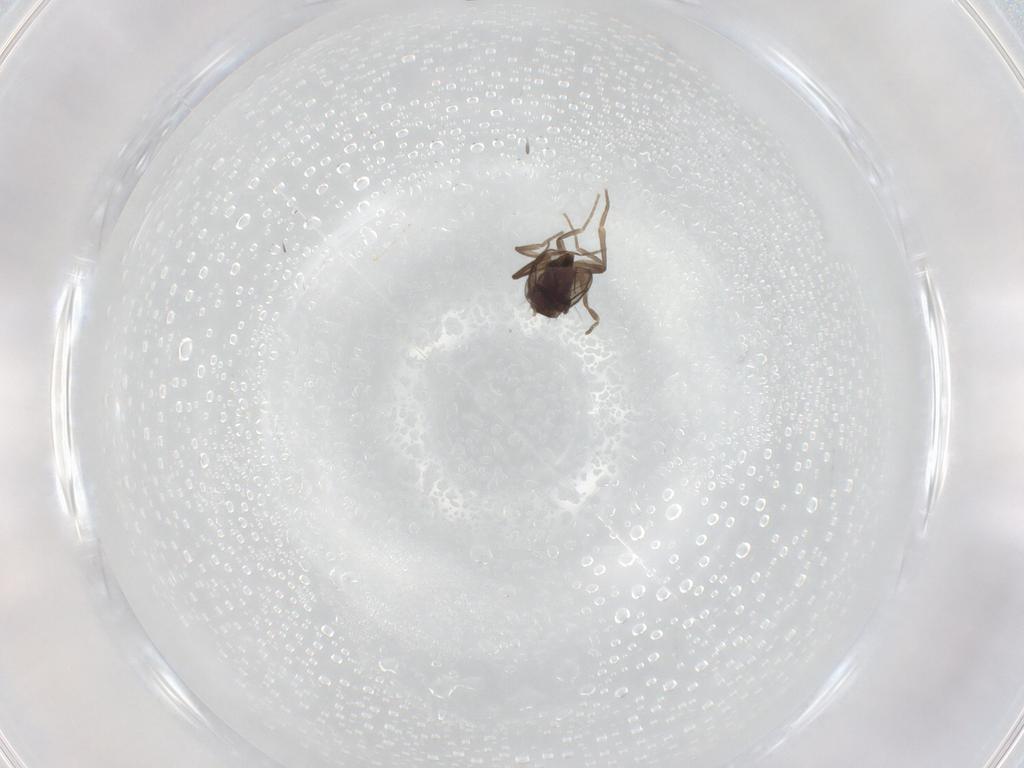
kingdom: Animalia
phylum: Arthropoda
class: Insecta
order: Diptera
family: Phoridae
